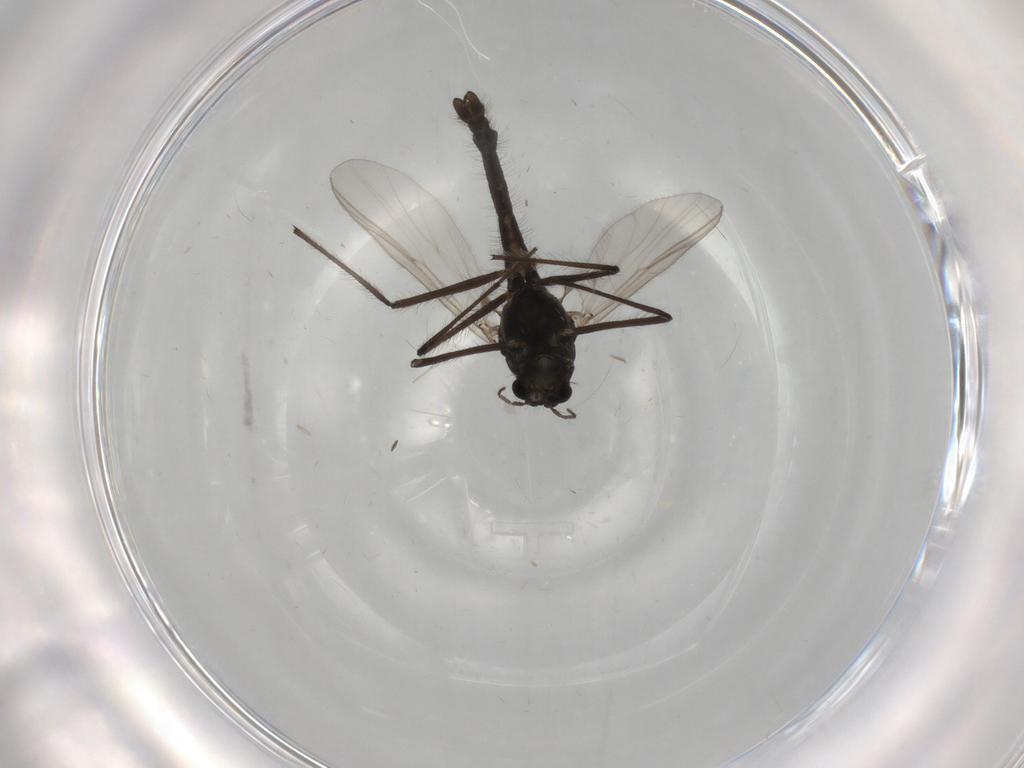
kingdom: Animalia
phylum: Arthropoda
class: Insecta
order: Diptera
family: Chironomidae
